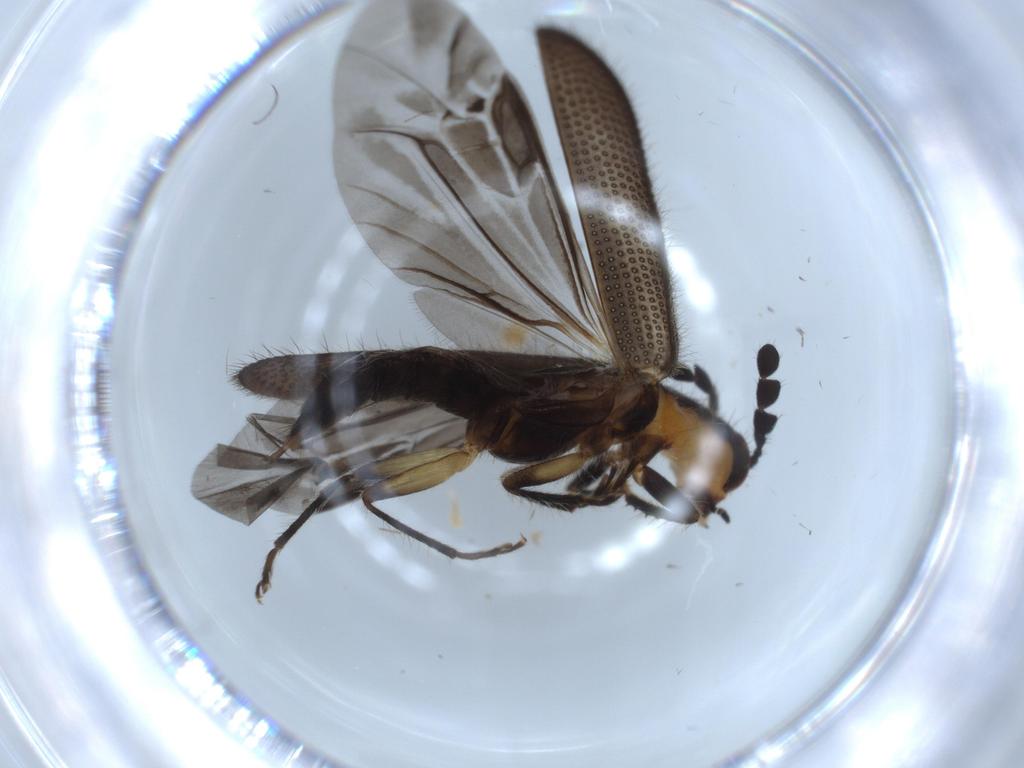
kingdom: Animalia
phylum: Arthropoda
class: Insecta
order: Coleoptera
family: Cleridae
